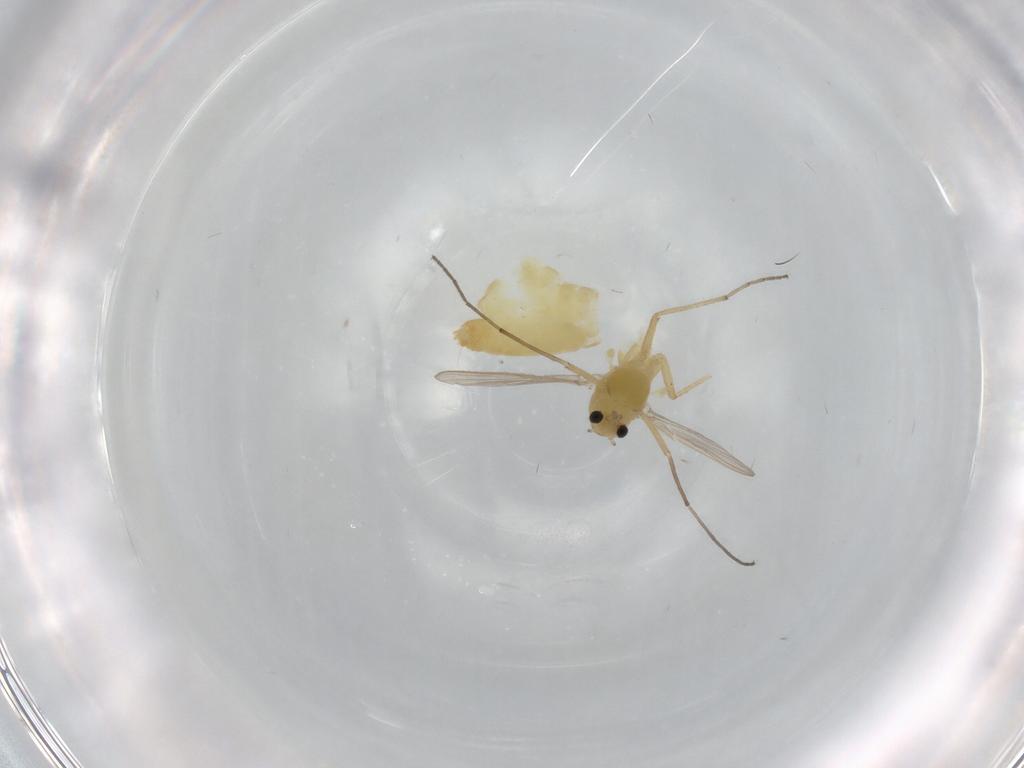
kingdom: Animalia
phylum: Arthropoda
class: Insecta
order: Diptera
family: Chironomidae
